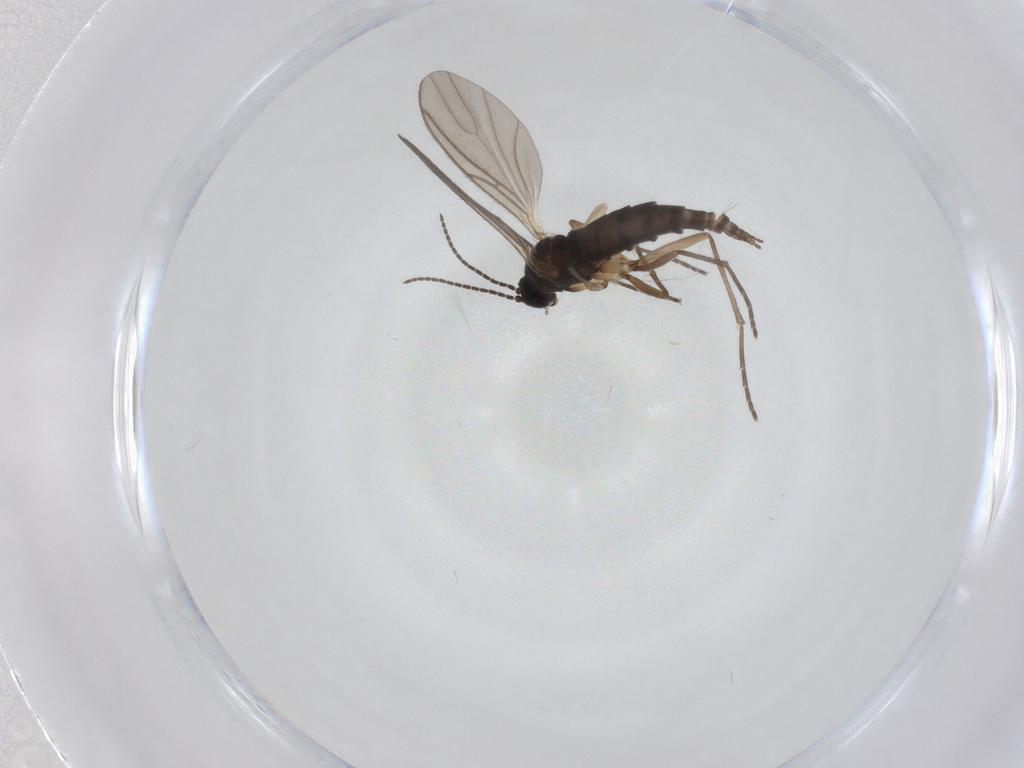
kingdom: Animalia
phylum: Arthropoda
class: Insecta
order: Diptera
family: Sciaridae
